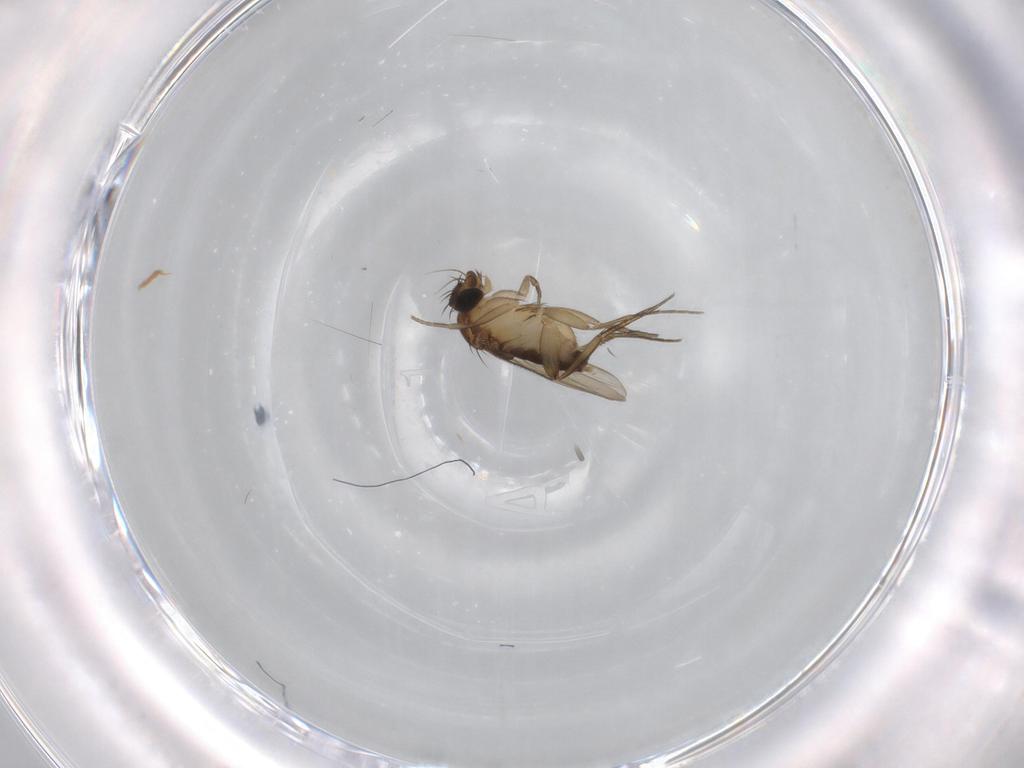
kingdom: Animalia
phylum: Arthropoda
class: Insecta
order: Diptera
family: Phoridae
